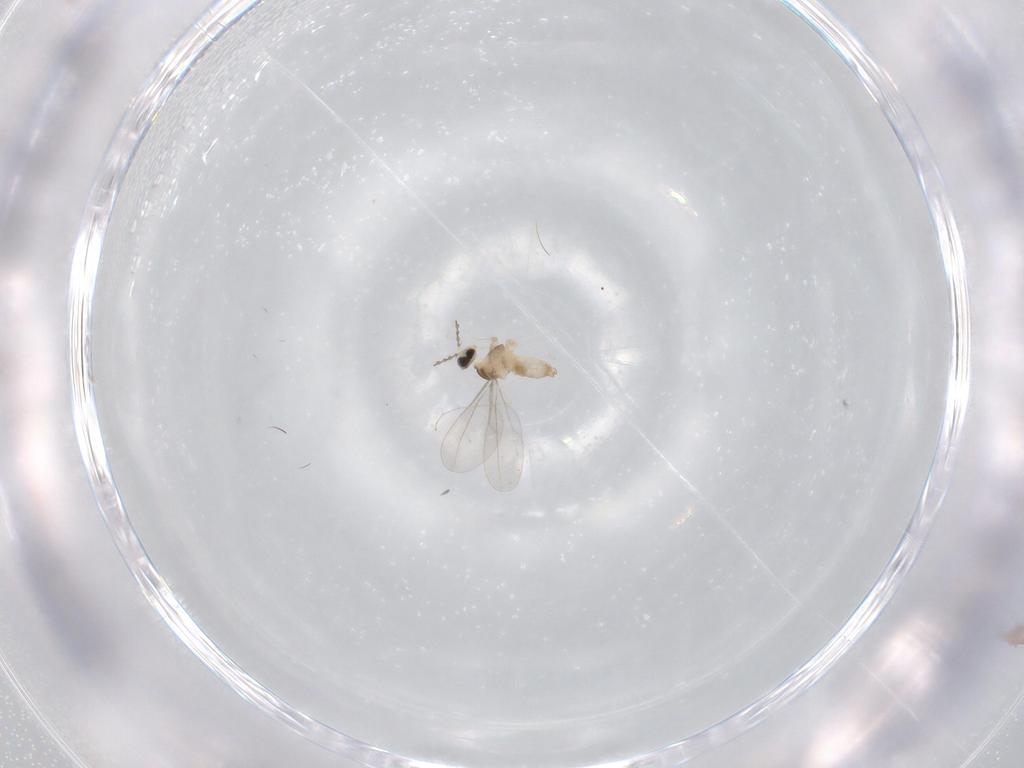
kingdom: Animalia
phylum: Arthropoda
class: Insecta
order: Diptera
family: Cecidomyiidae
